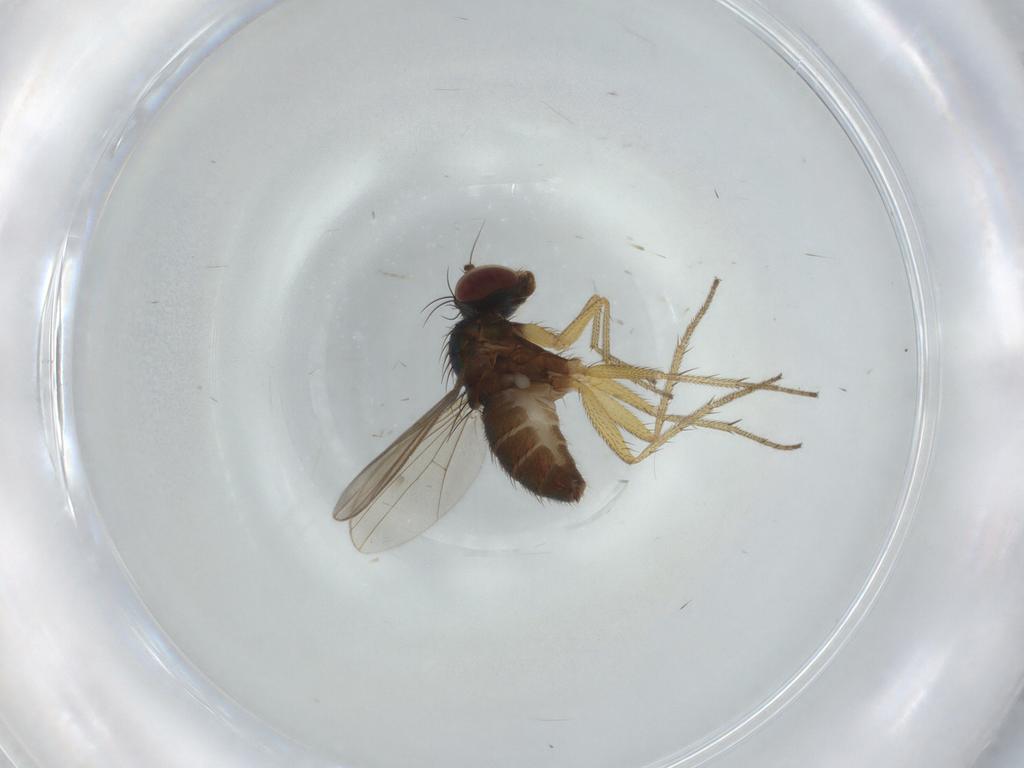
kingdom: Animalia
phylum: Arthropoda
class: Insecta
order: Diptera
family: Dolichopodidae
